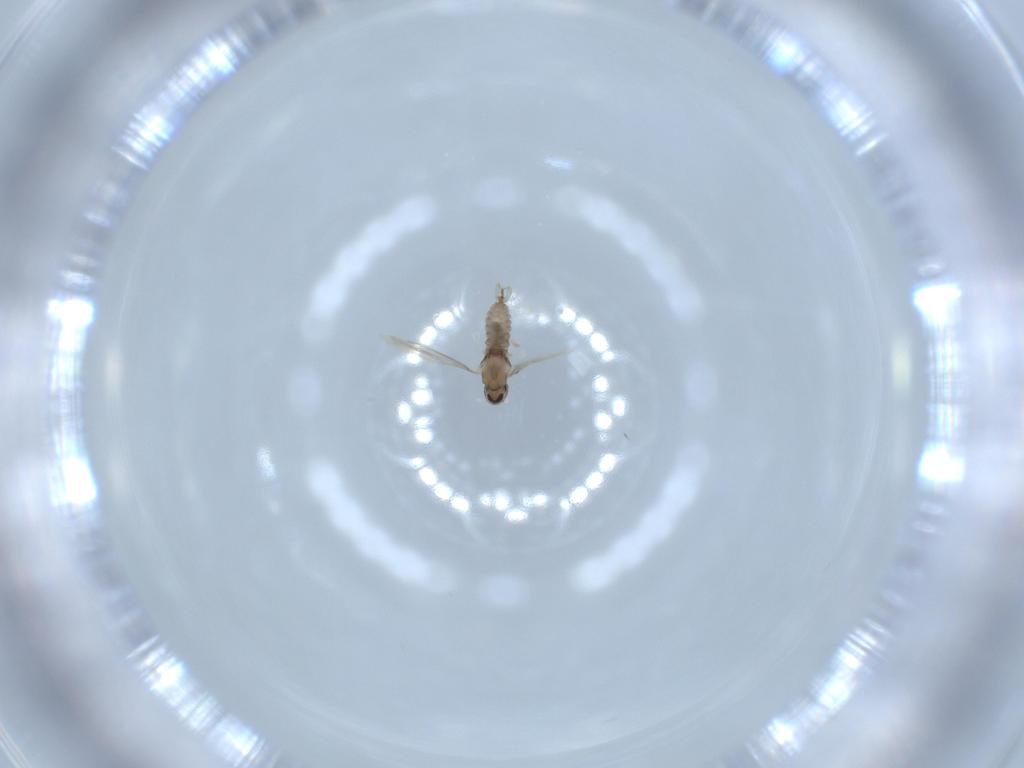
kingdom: Animalia
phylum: Arthropoda
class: Insecta
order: Diptera
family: Cecidomyiidae
